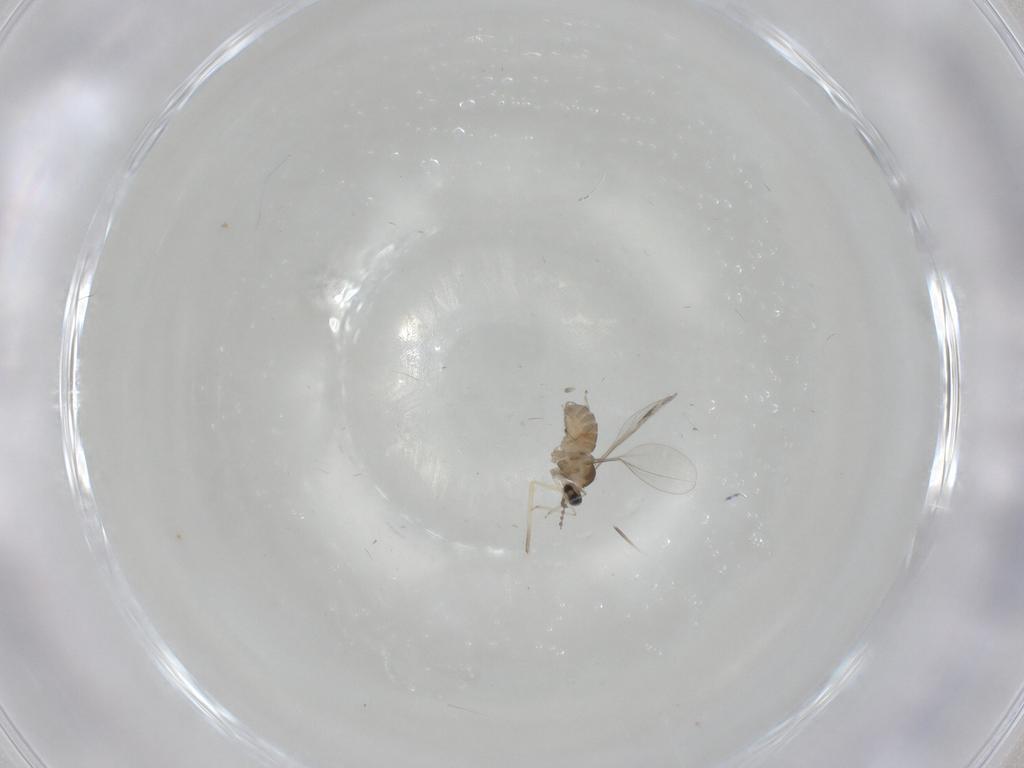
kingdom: Animalia
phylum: Arthropoda
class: Insecta
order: Diptera
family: Cecidomyiidae
